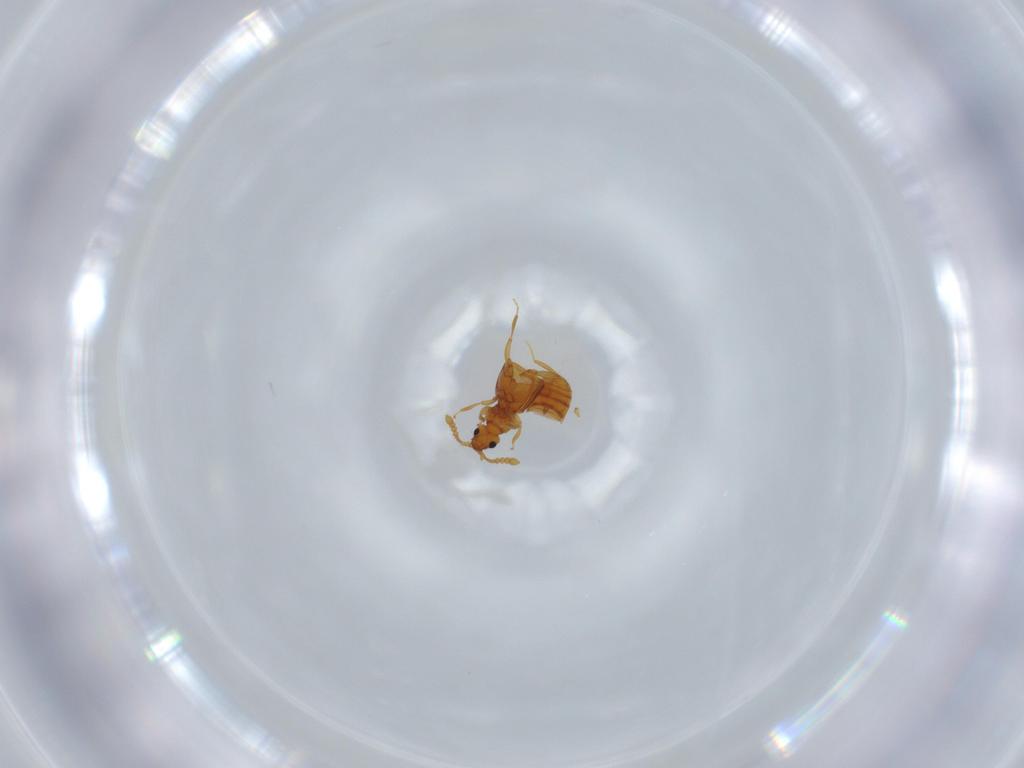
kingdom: Animalia
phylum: Arthropoda
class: Insecta
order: Coleoptera
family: Staphylinidae
